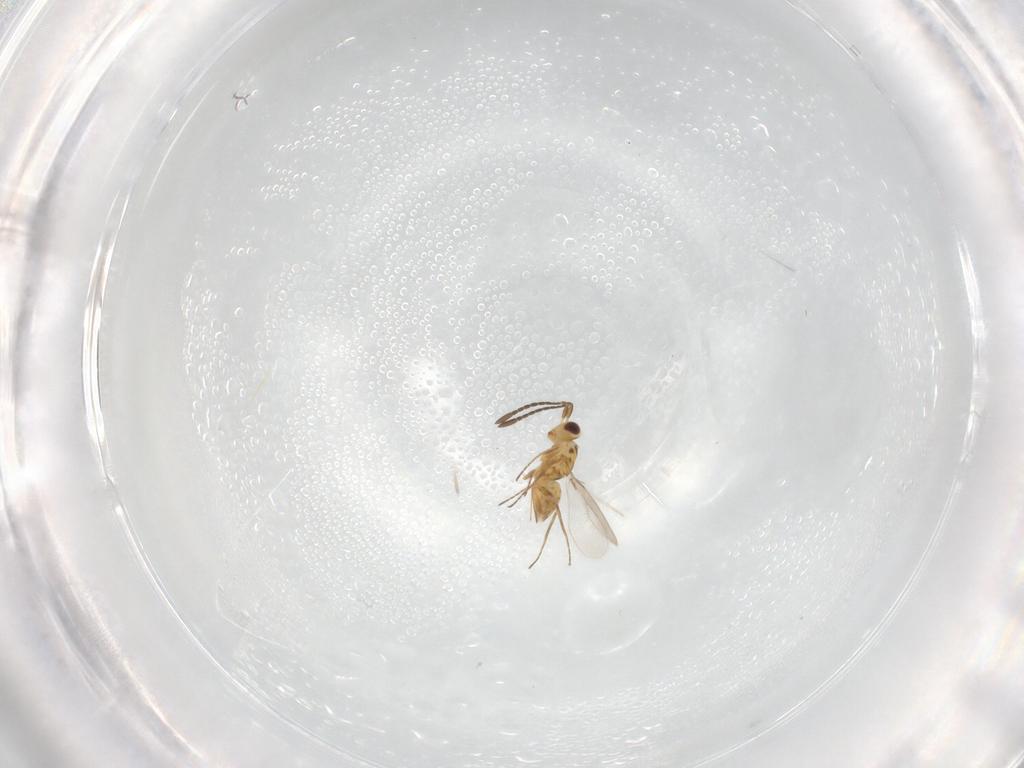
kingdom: Animalia
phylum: Arthropoda
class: Insecta
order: Hymenoptera
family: Mymaridae
